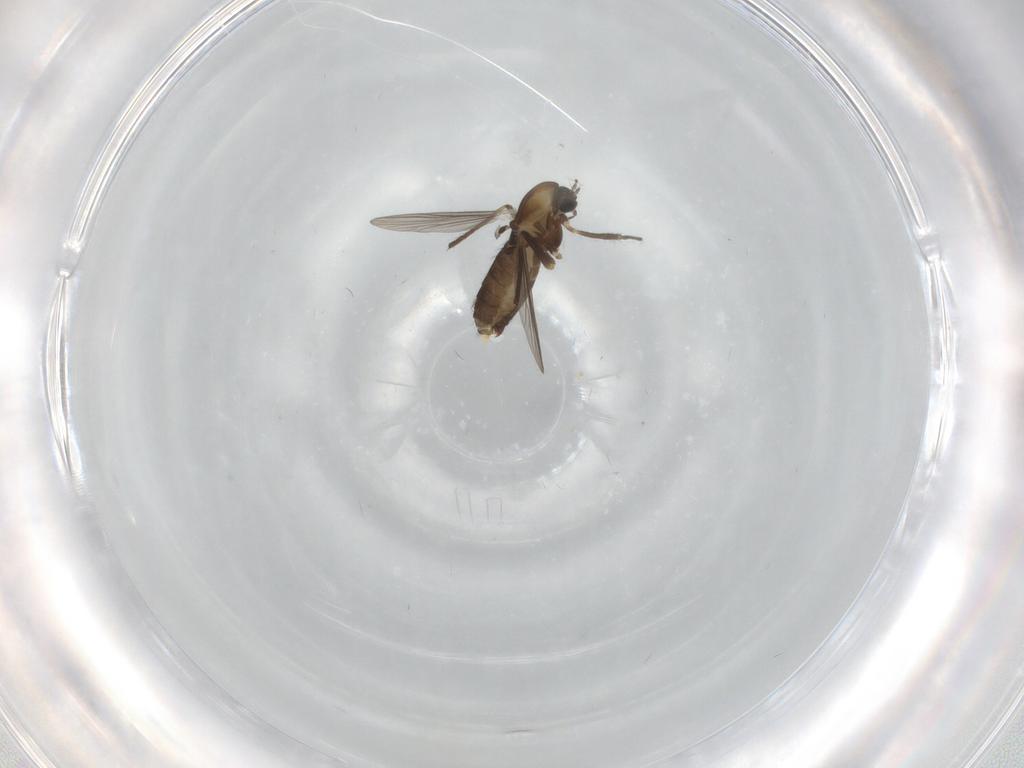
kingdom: Animalia
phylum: Arthropoda
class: Insecta
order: Diptera
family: Chironomidae
